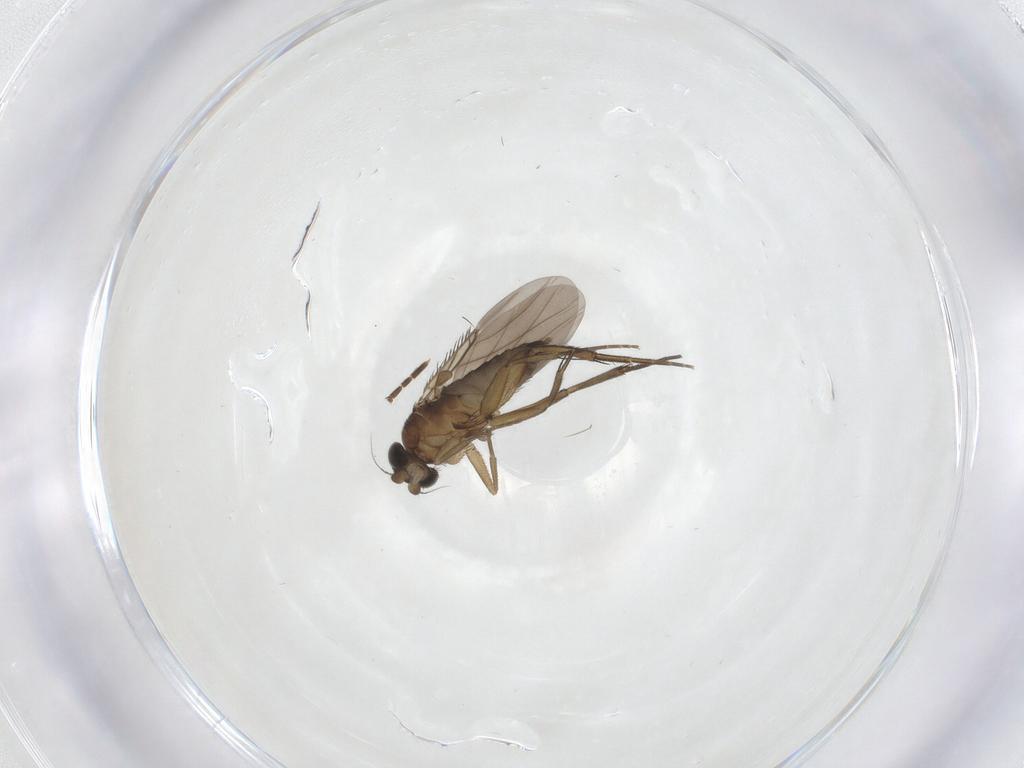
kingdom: Animalia
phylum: Arthropoda
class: Insecta
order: Diptera
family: Phoridae
